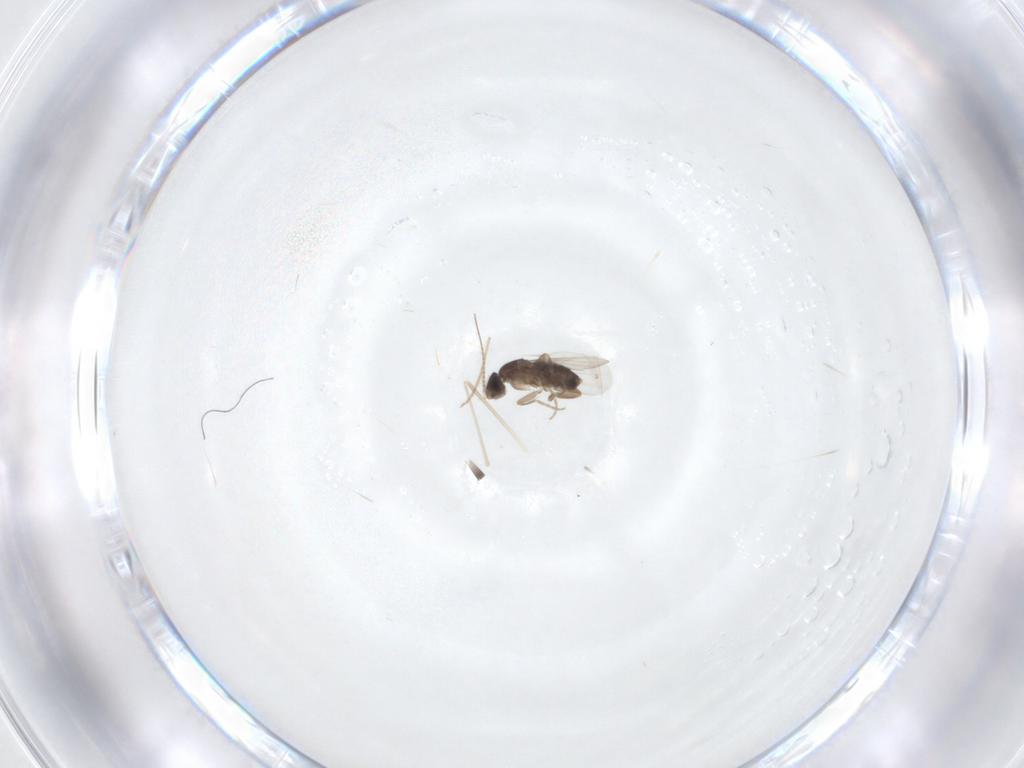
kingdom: Animalia
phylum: Arthropoda
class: Insecta
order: Diptera
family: Phoridae
